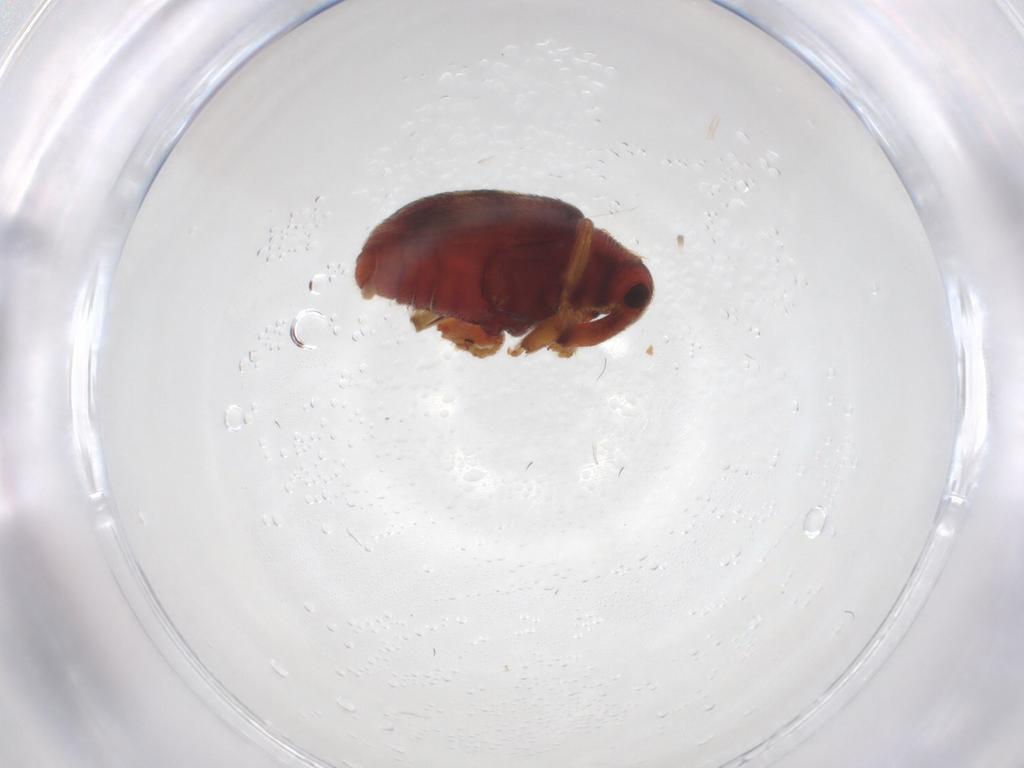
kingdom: Animalia
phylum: Arthropoda
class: Insecta
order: Coleoptera
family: Curculionidae
